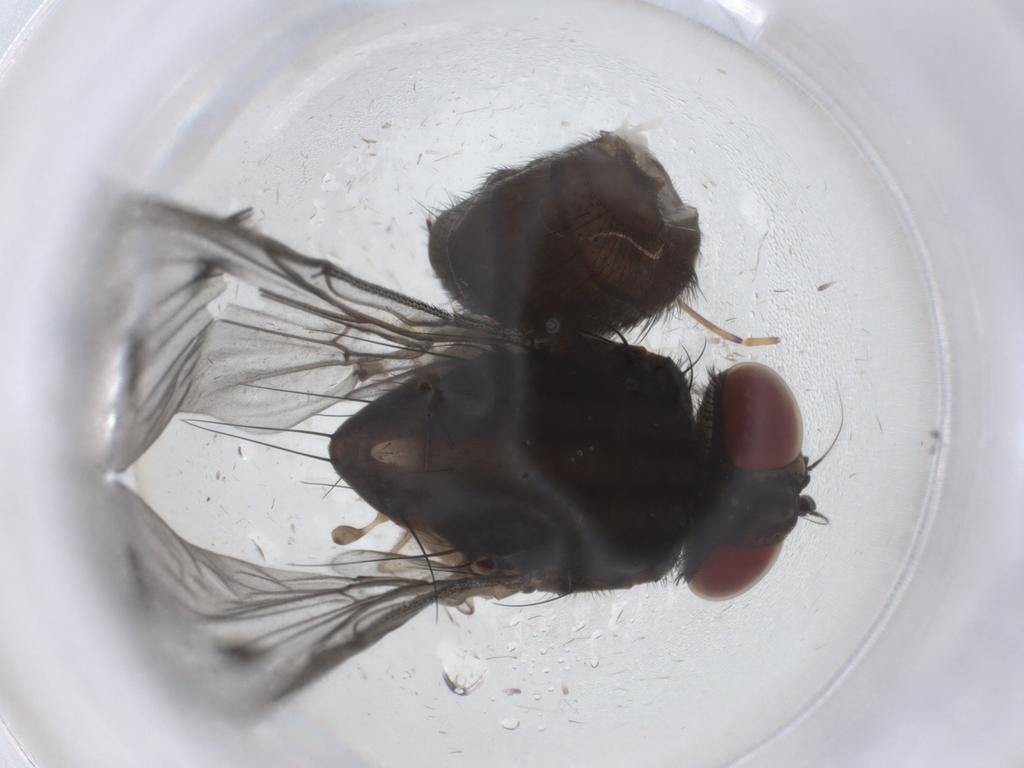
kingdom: Animalia
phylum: Arthropoda
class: Insecta
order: Diptera
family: Muscidae
